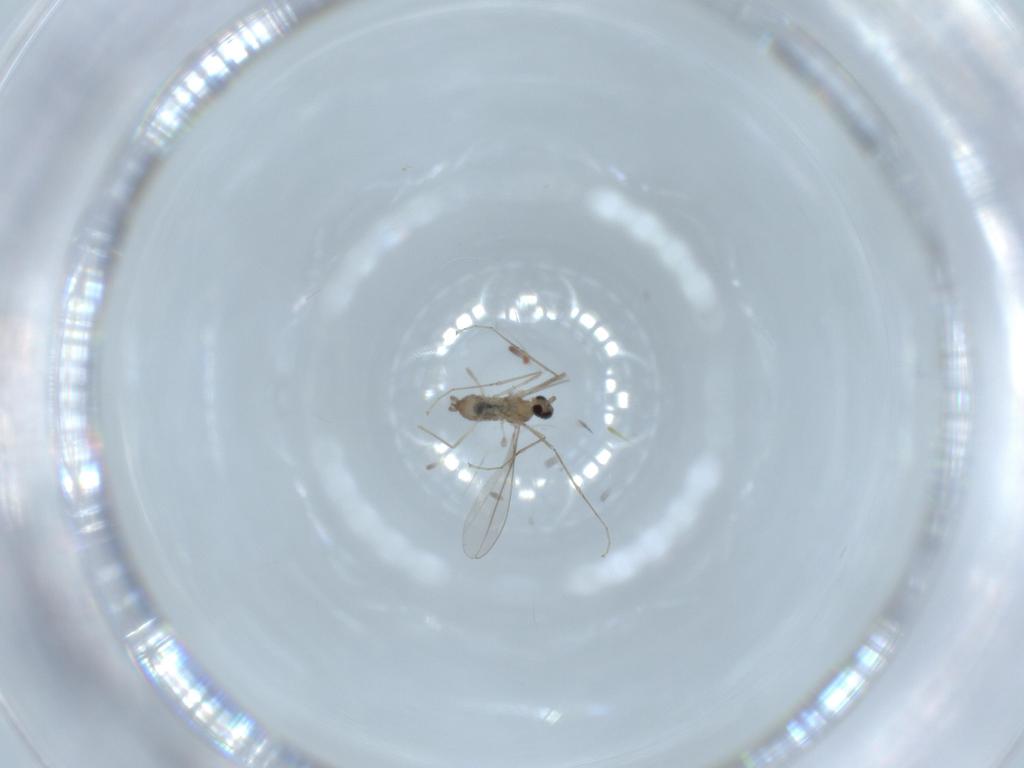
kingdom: Animalia
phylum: Arthropoda
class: Insecta
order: Diptera
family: Cecidomyiidae
